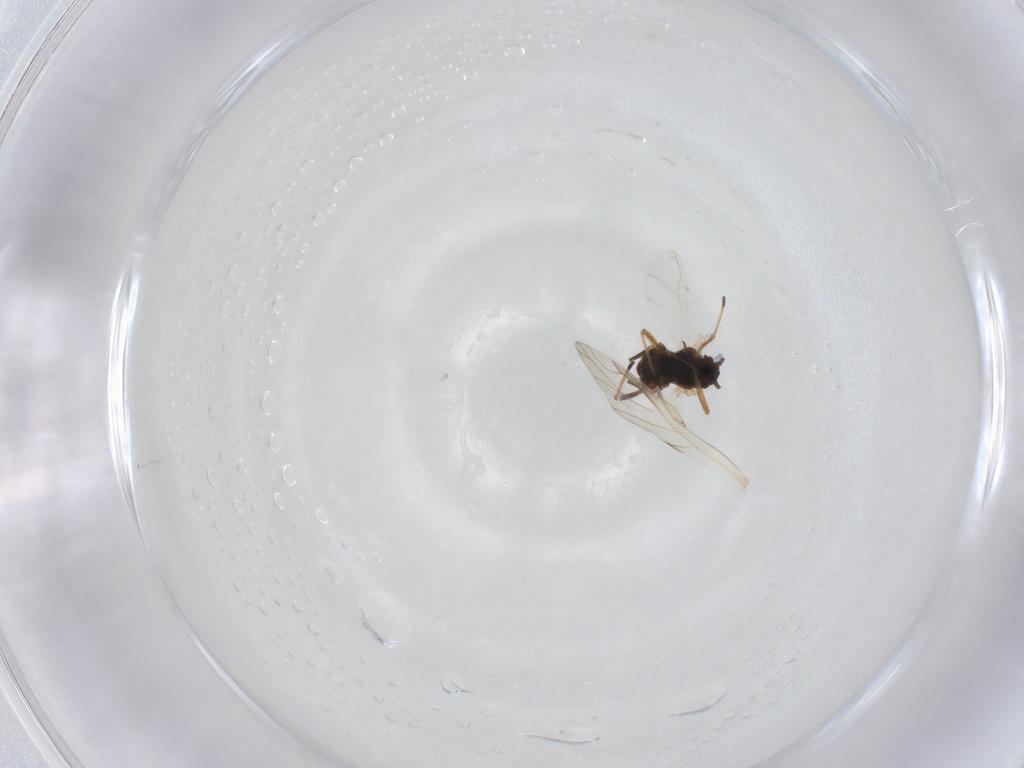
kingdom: Animalia
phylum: Arthropoda
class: Insecta
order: Hemiptera
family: Aphididae
